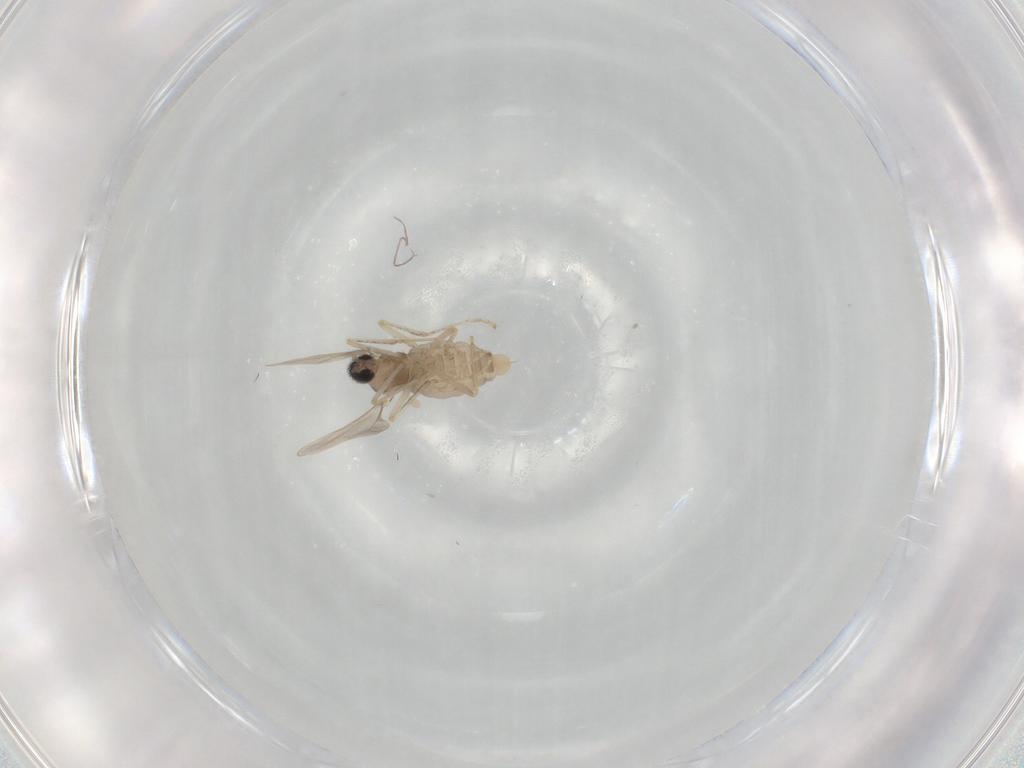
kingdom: Animalia
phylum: Arthropoda
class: Insecta
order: Diptera
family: Cecidomyiidae
